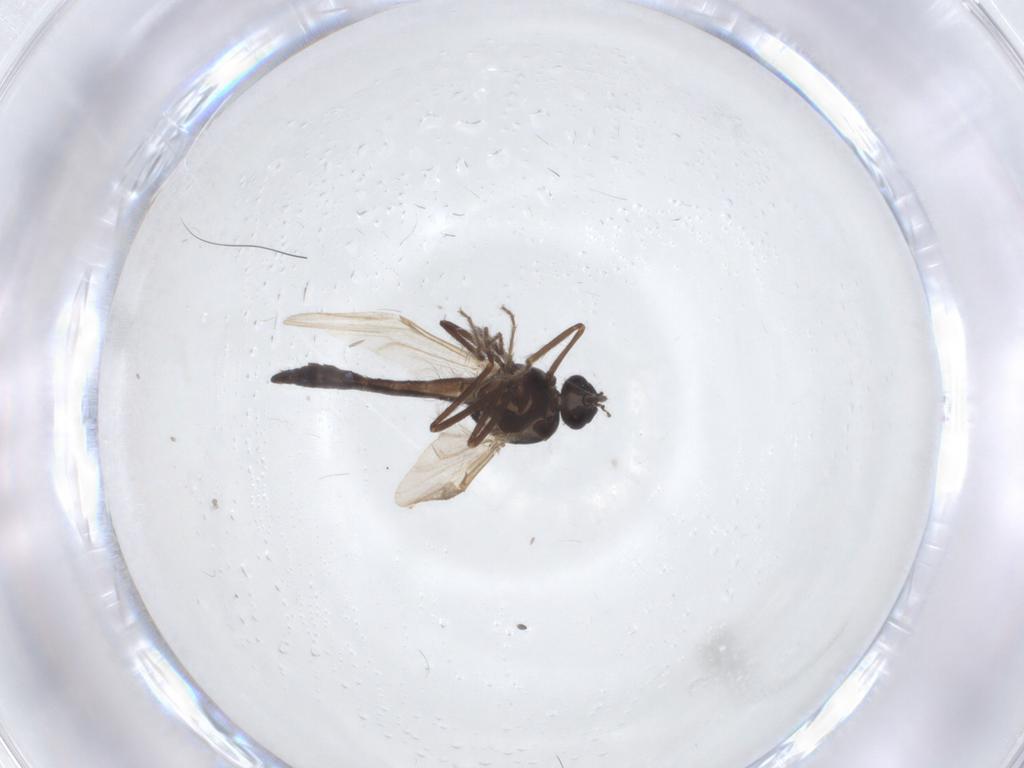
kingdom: Animalia
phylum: Arthropoda
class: Insecta
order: Diptera
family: Ceratopogonidae
